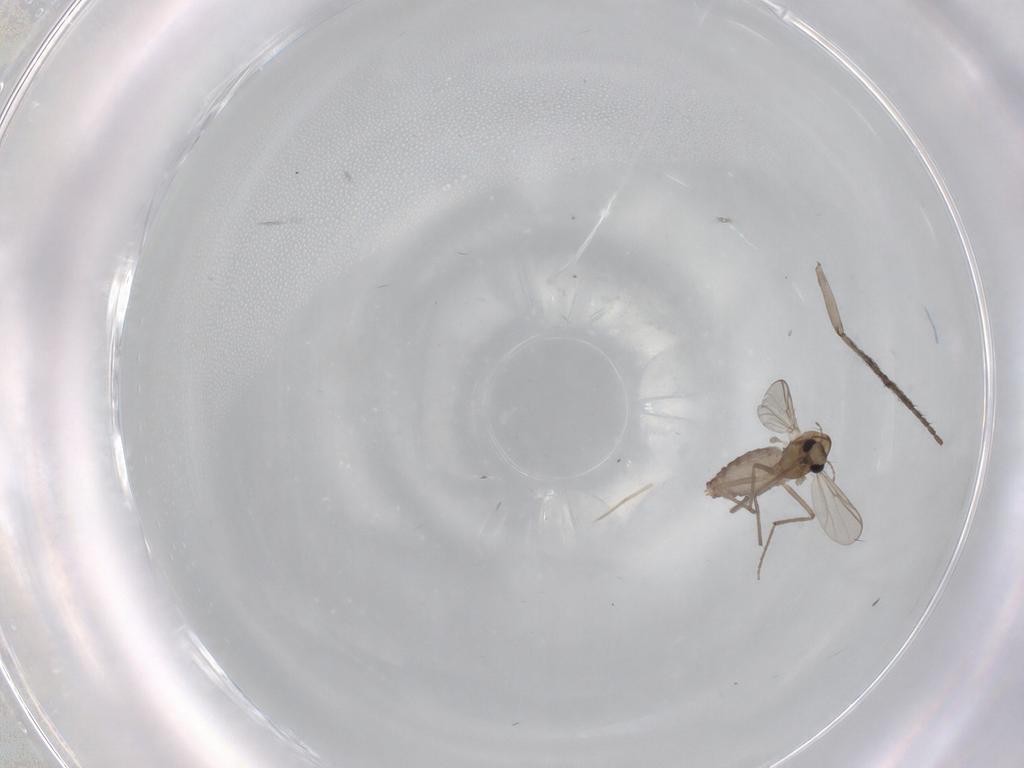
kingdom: Animalia
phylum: Arthropoda
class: Insecta
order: Diptera
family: Chironomidae
